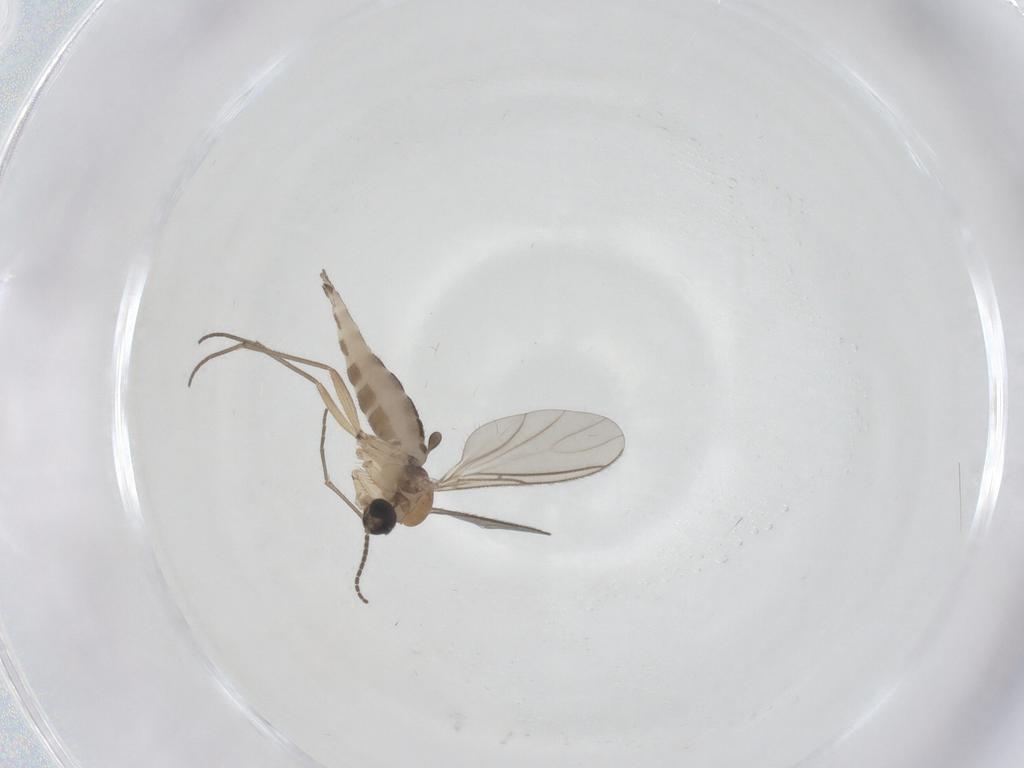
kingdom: Animalia
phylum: Arthropoda
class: Insecta
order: Diptera
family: Sciaridae
